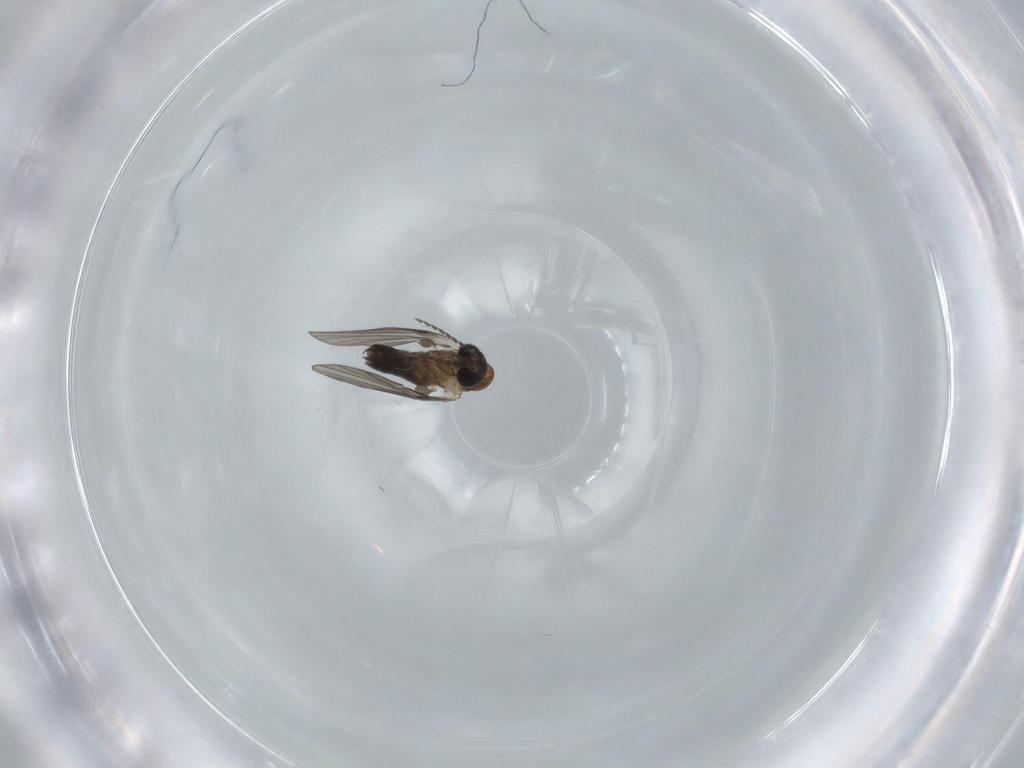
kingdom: Animalia
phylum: Arthropoda
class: Insecta
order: Diptera
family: Psychodidae
